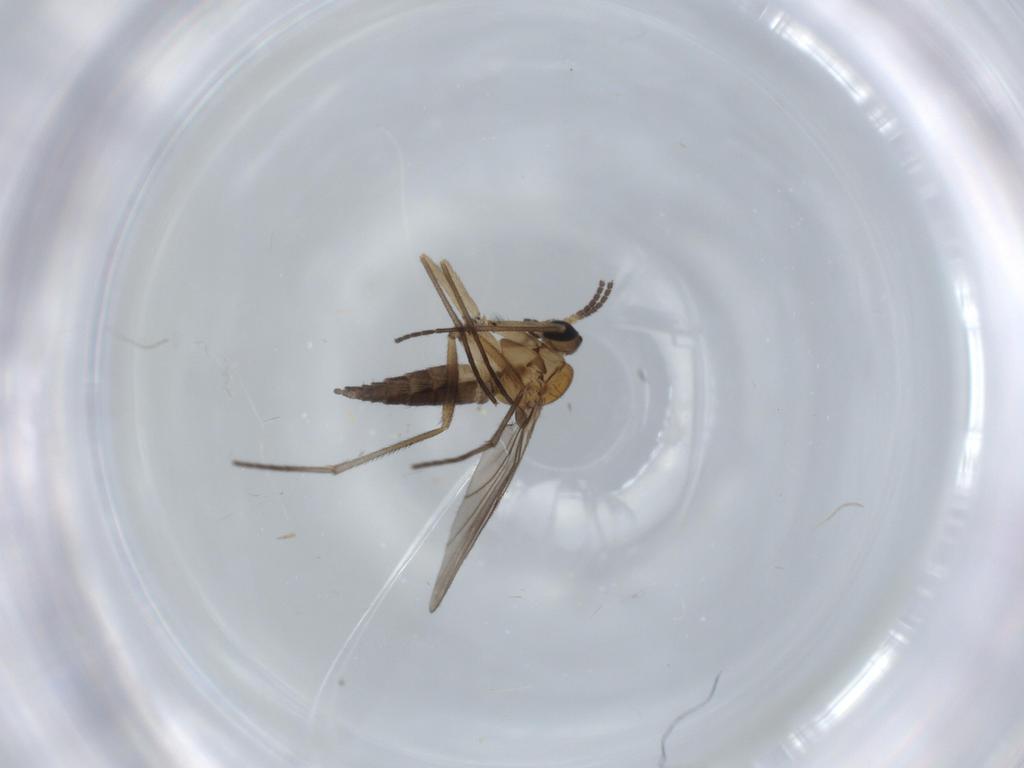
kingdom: Animalia
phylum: Arthropoda
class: Insecta
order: Diptera
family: Sciaridae
